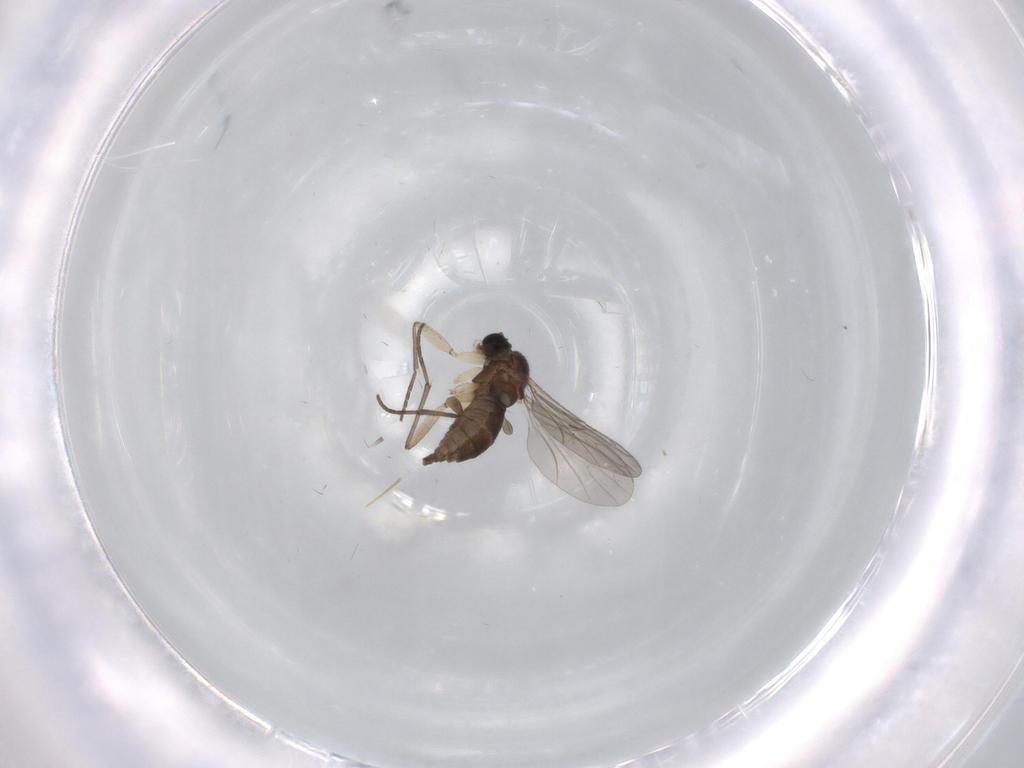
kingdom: Animalia
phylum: Arthropoda
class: Insecta
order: Diptera
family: Sciaridae
